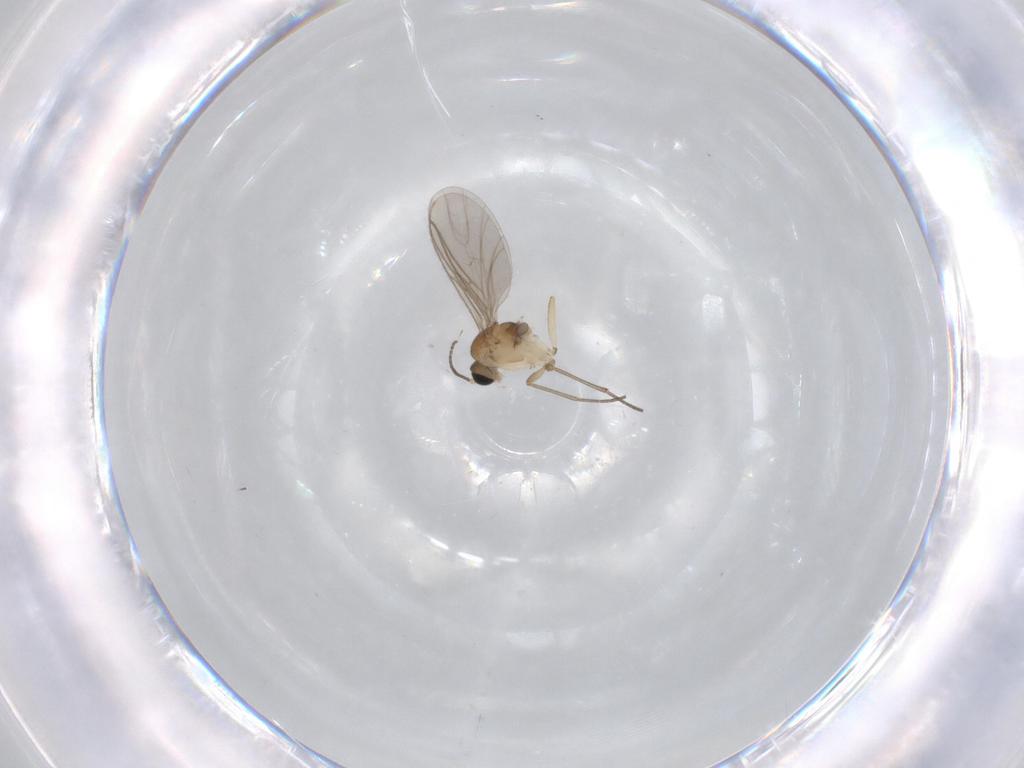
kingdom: Animalia
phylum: Arthropoda
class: Insecta
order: Diptera
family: Sciaridae
